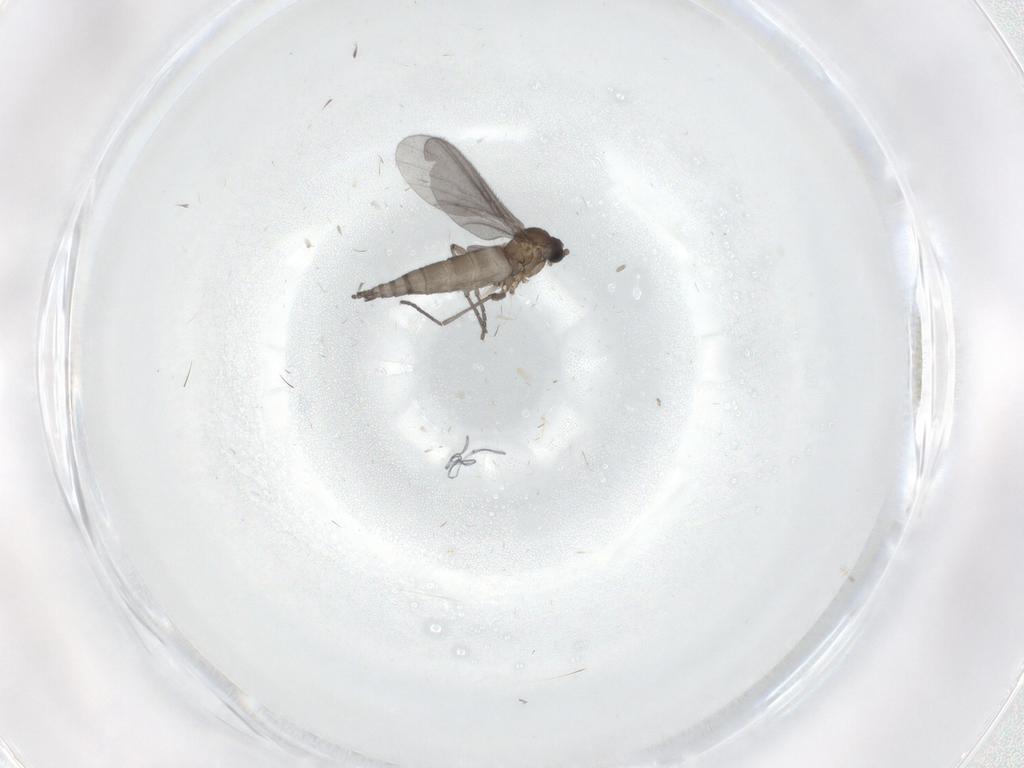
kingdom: Animalia
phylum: Arthropoda
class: Insecta
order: Diptera
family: Sciaridae
